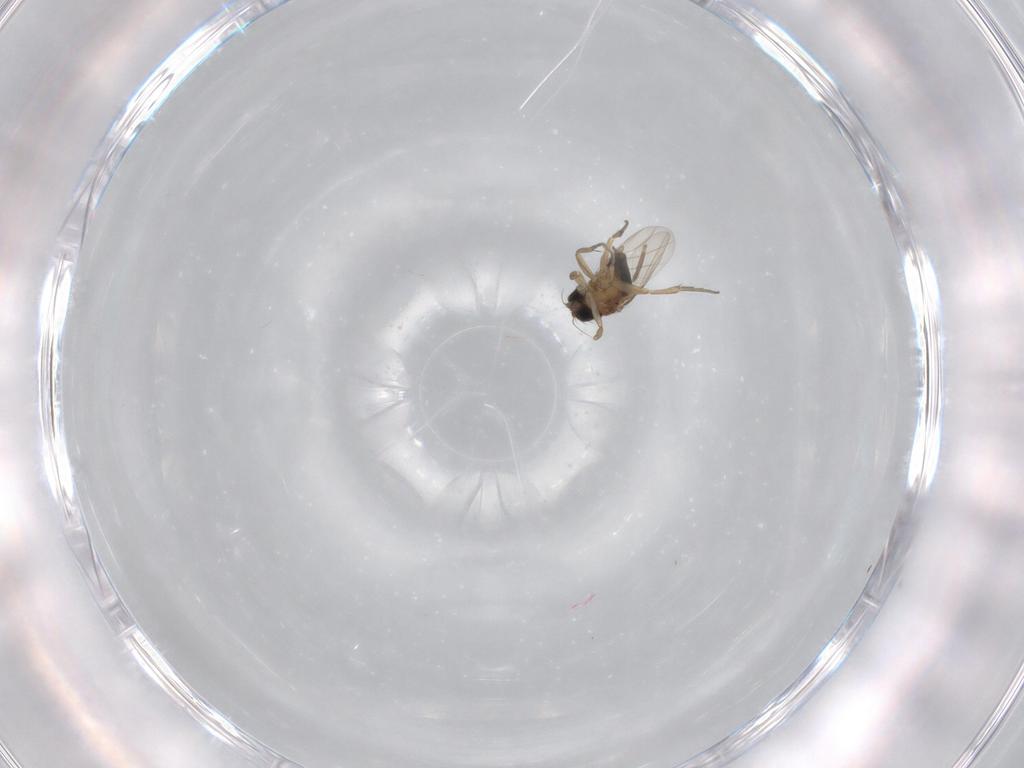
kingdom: Animalia
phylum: Arthropoda
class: Insecta
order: Diptera
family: Phoridae
